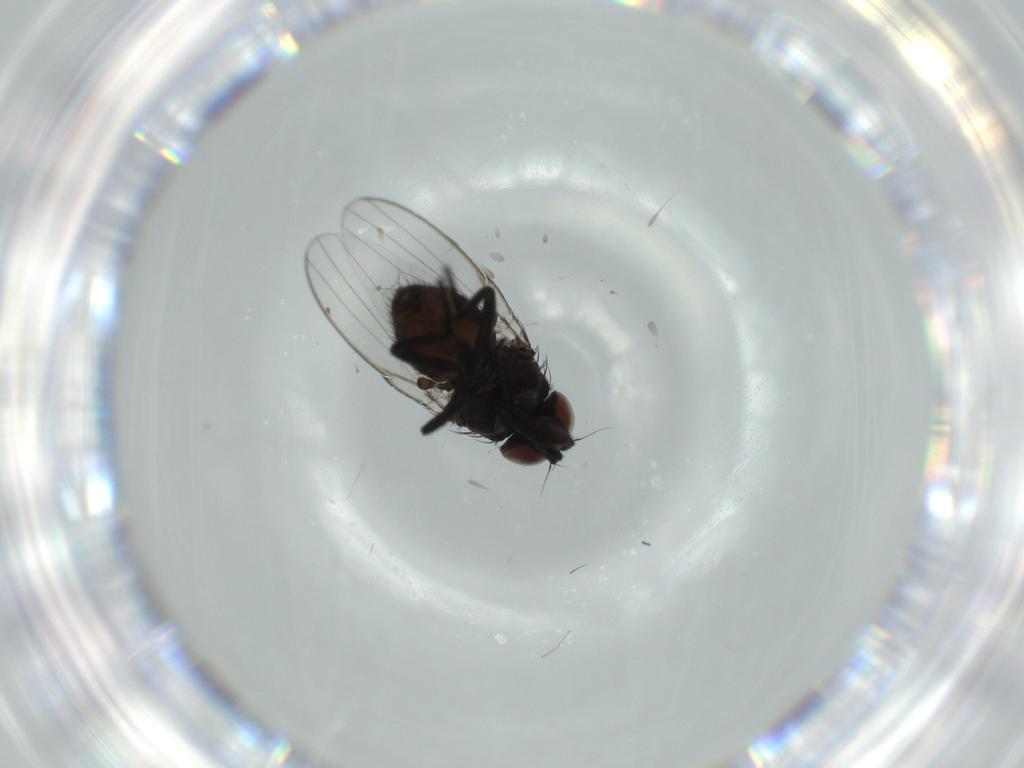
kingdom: Animalia
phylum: Arthropoda
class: Insecta
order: Diptera
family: Milichiidae
